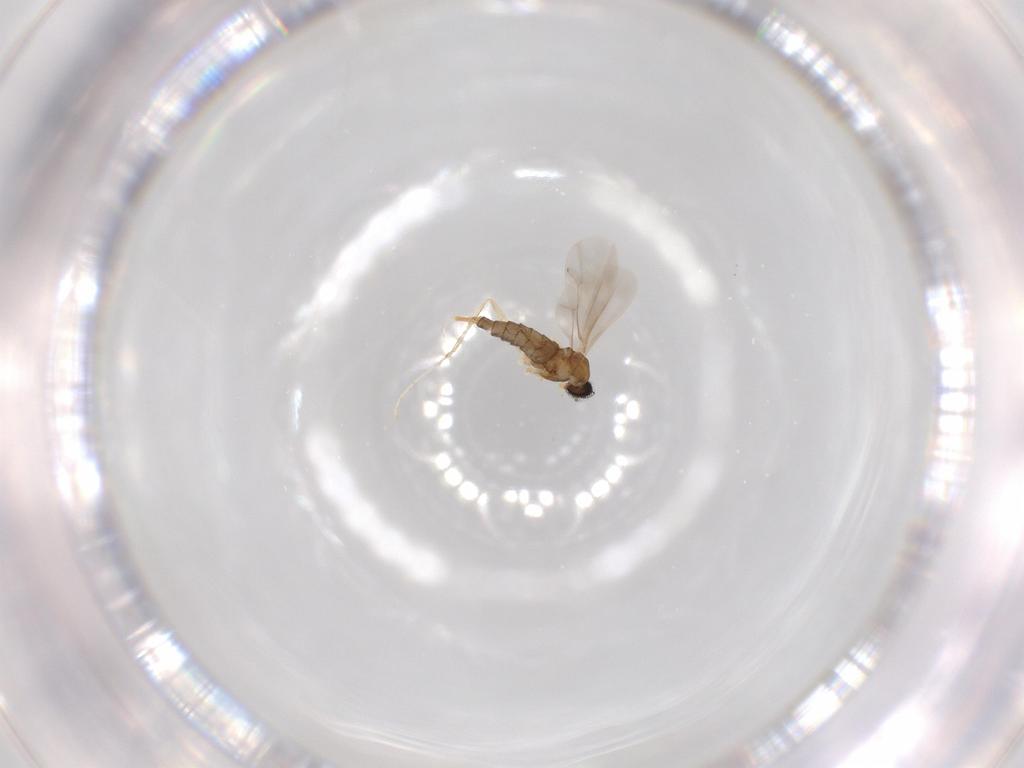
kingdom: Animalia
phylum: Arthropoda
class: Insecta
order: Diptera
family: Cecidomyiidae
